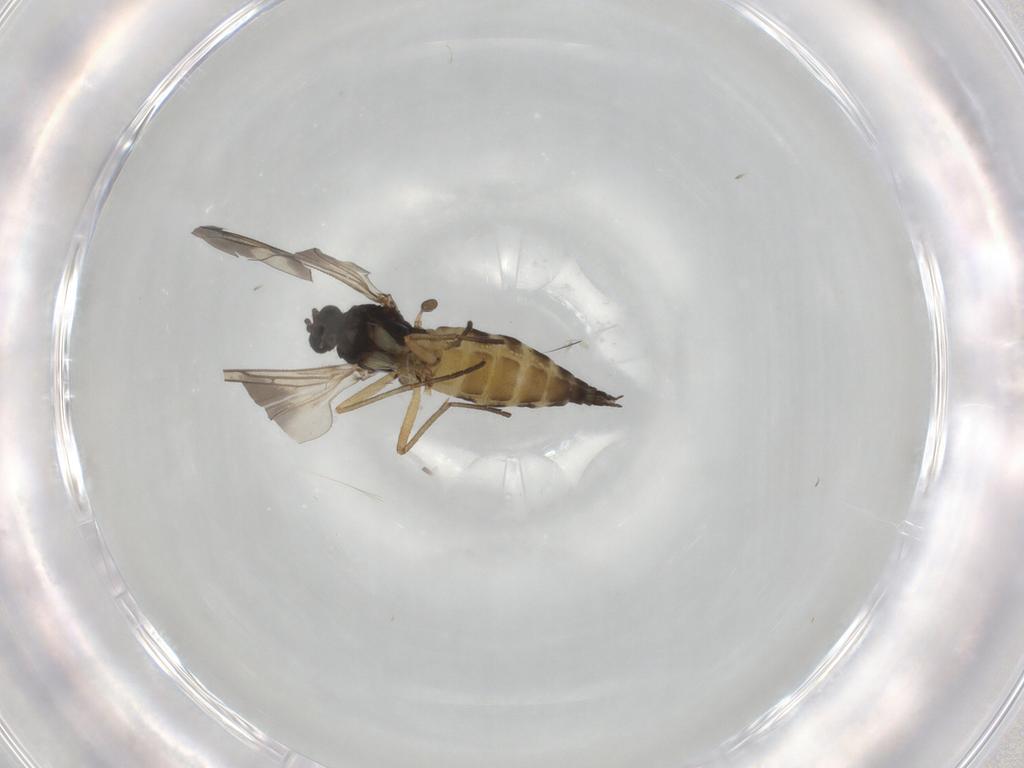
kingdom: Animalia
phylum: Arthropoda
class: Insecta
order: Diptera
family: Sciaridae
